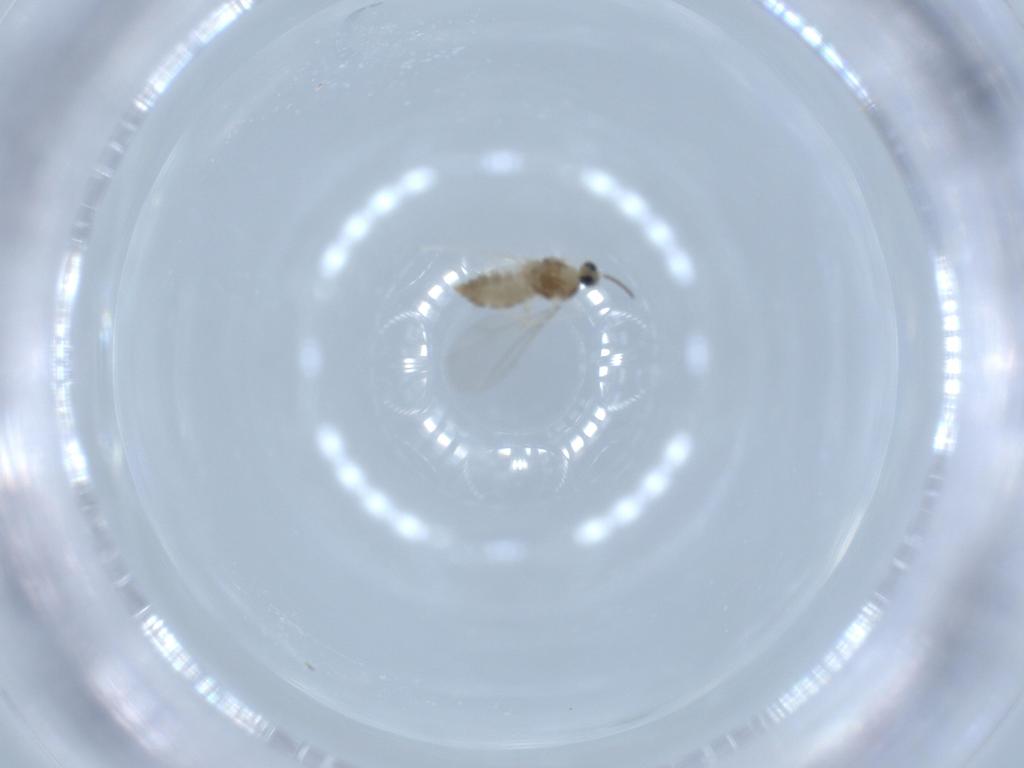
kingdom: Animalia
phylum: Arthropoda
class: Insecta
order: Diptera
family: Cecidomyiidae
